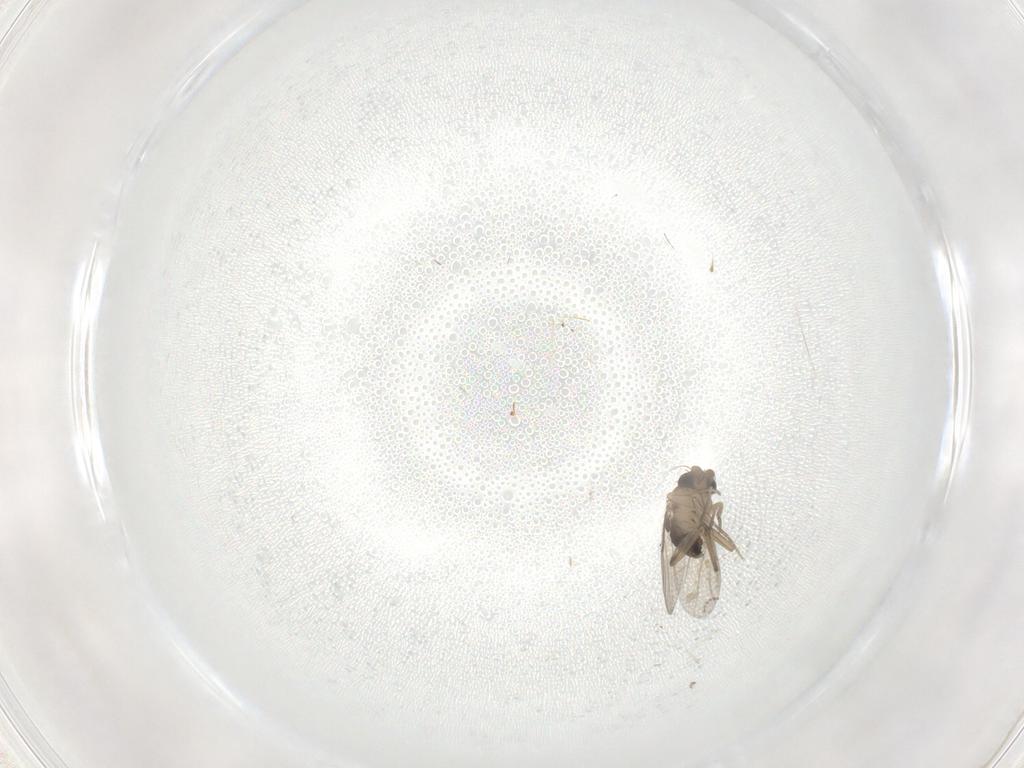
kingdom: Animalia
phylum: Arthropoda
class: Insecta
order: Diptera
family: Phoridae
